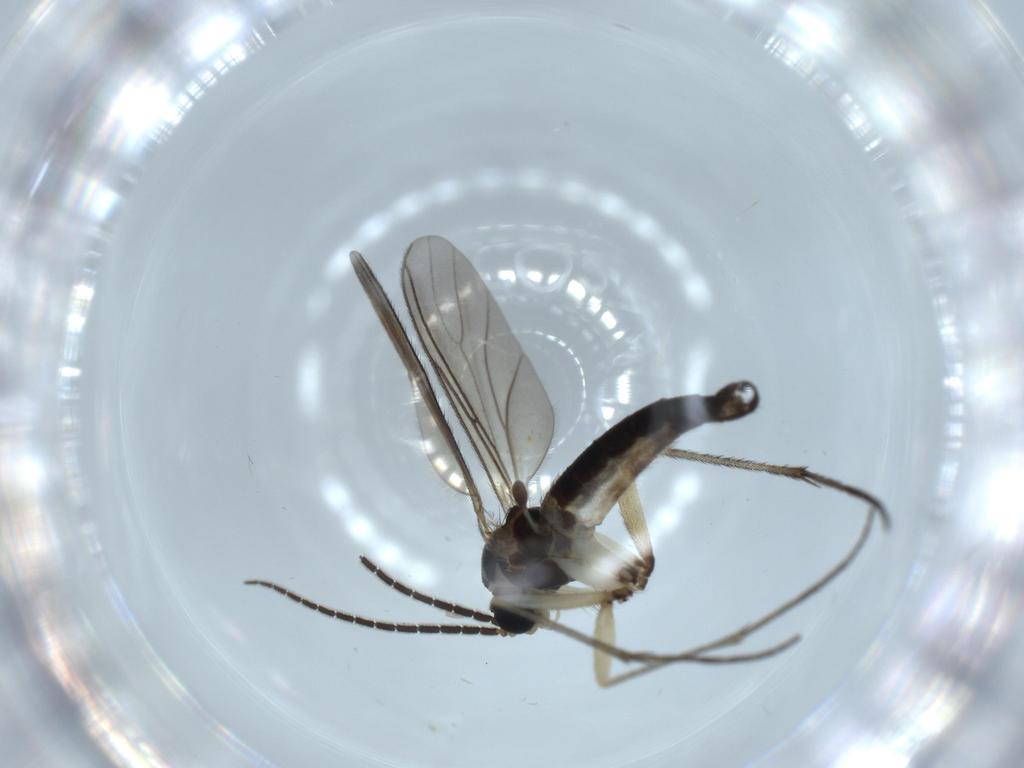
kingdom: Animalia
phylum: Arthropoda
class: Insecta
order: Diptera
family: Sciaridae
